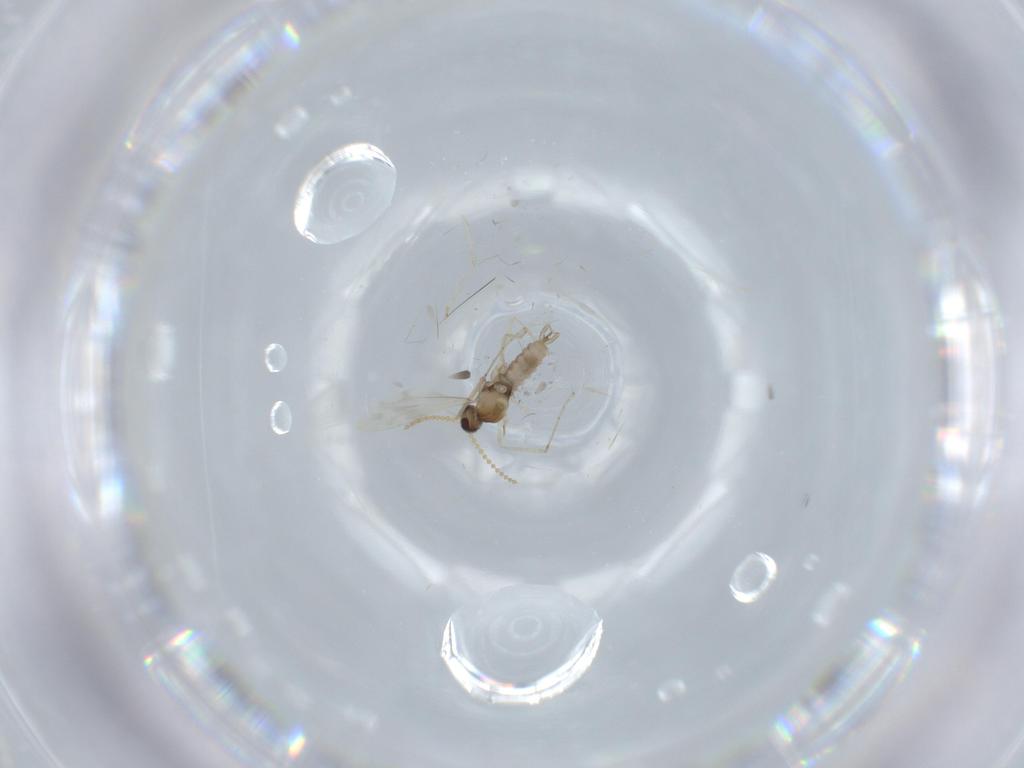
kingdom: Animalia
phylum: Arthropoda
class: Insecta
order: Diptera
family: Cecidomyiidae
